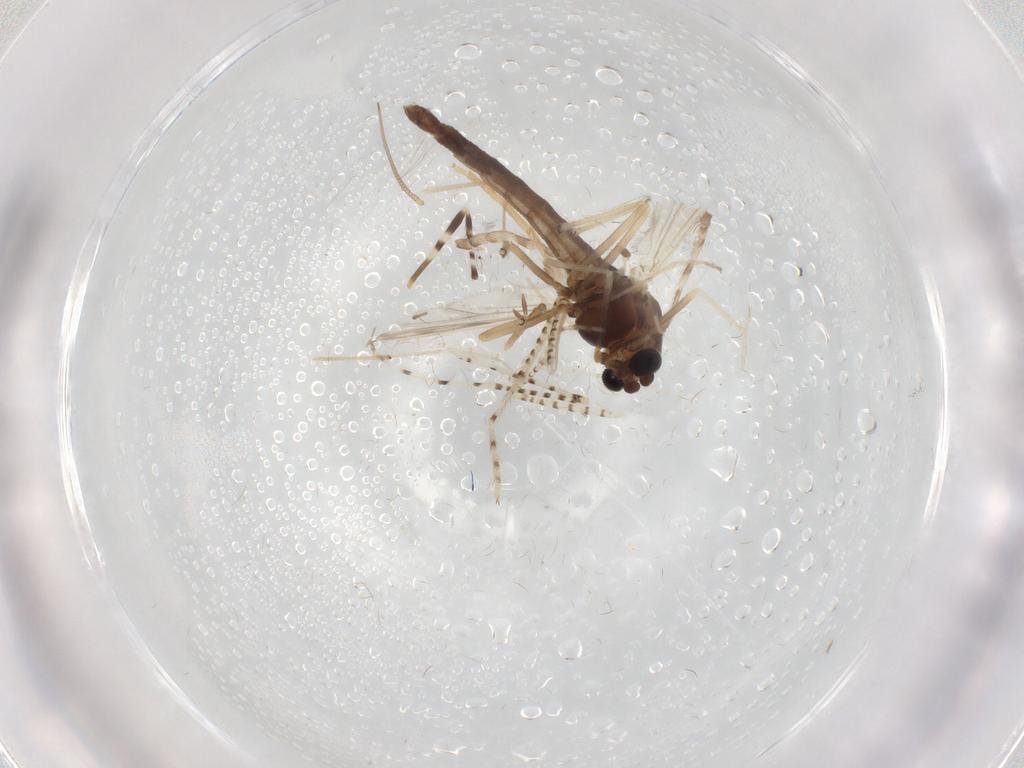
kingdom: Animalia
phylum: Arthropoda
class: Insecta
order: Diptera
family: Chironomidae
